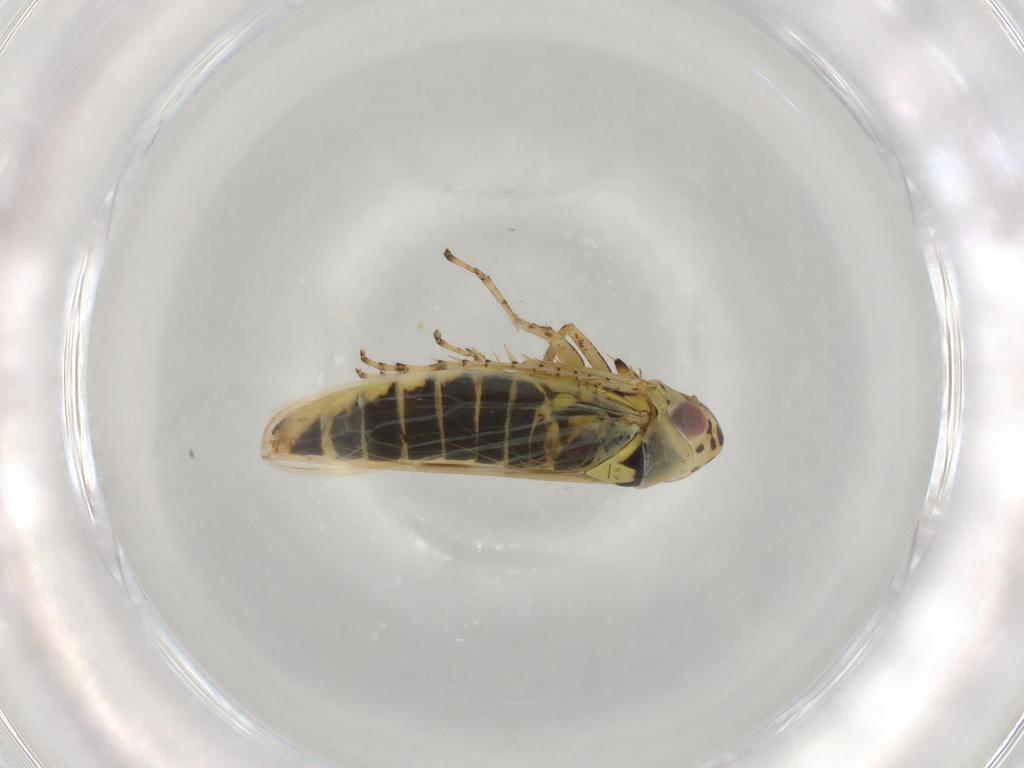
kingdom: Animalia
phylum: Arthropoda
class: Insecta
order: Hemiptera
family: Cicadellidae
